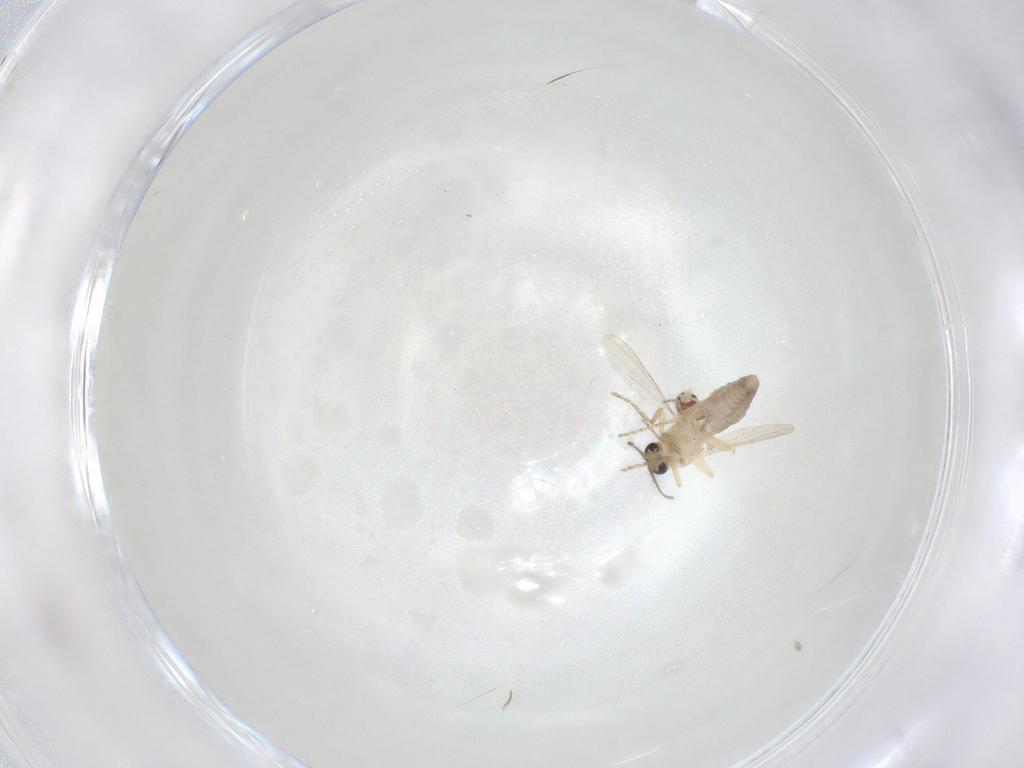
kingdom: Animalia
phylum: Arthropoda
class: Insecta
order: Diptera
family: Ceratopogonidae
